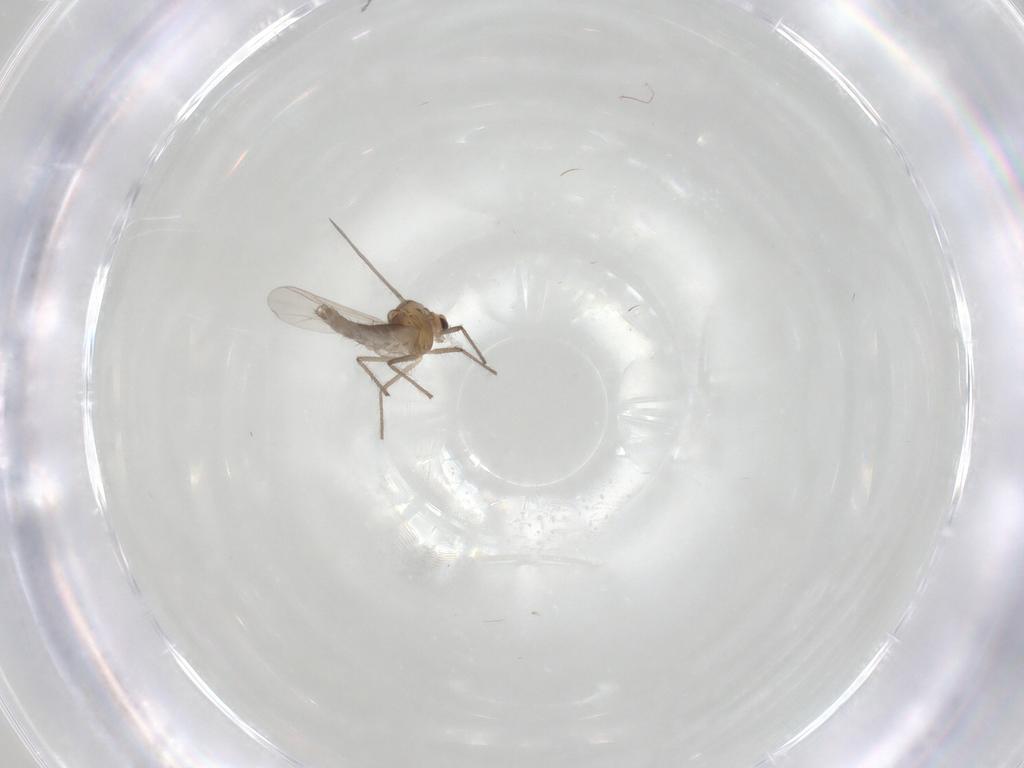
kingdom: Animalia
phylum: Arthropoda
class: Insecta
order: Diptera
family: Chironomidae
